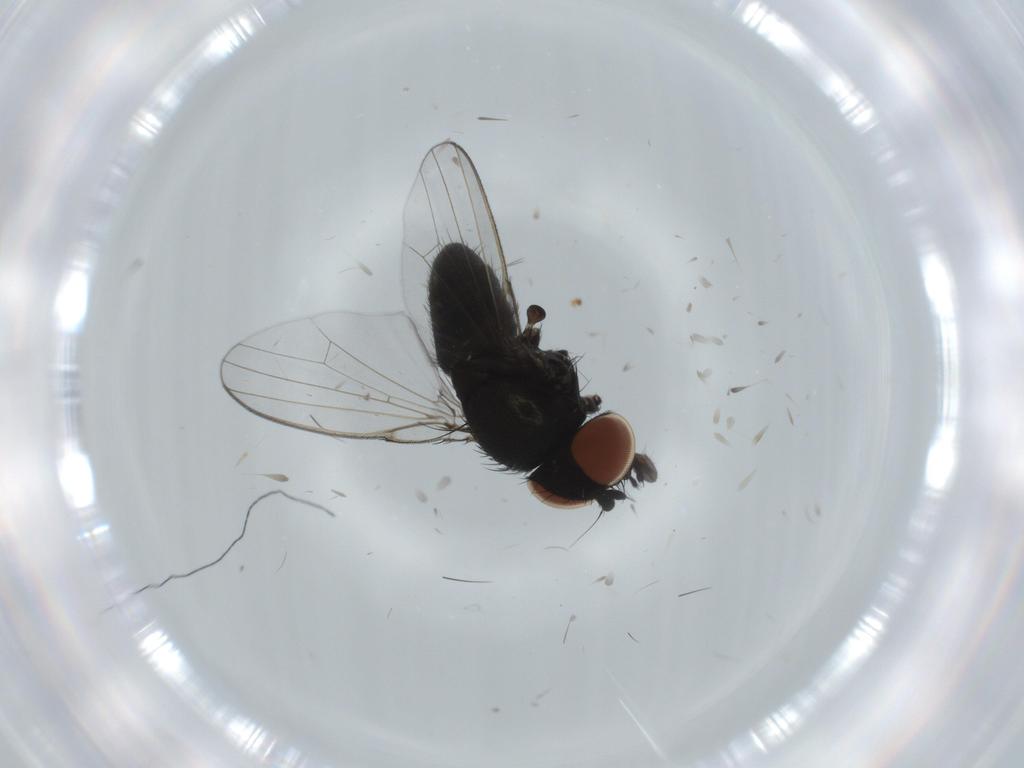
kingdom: Animalia
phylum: Arthropoda
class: Insecta
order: Diptera
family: Milichiidae
